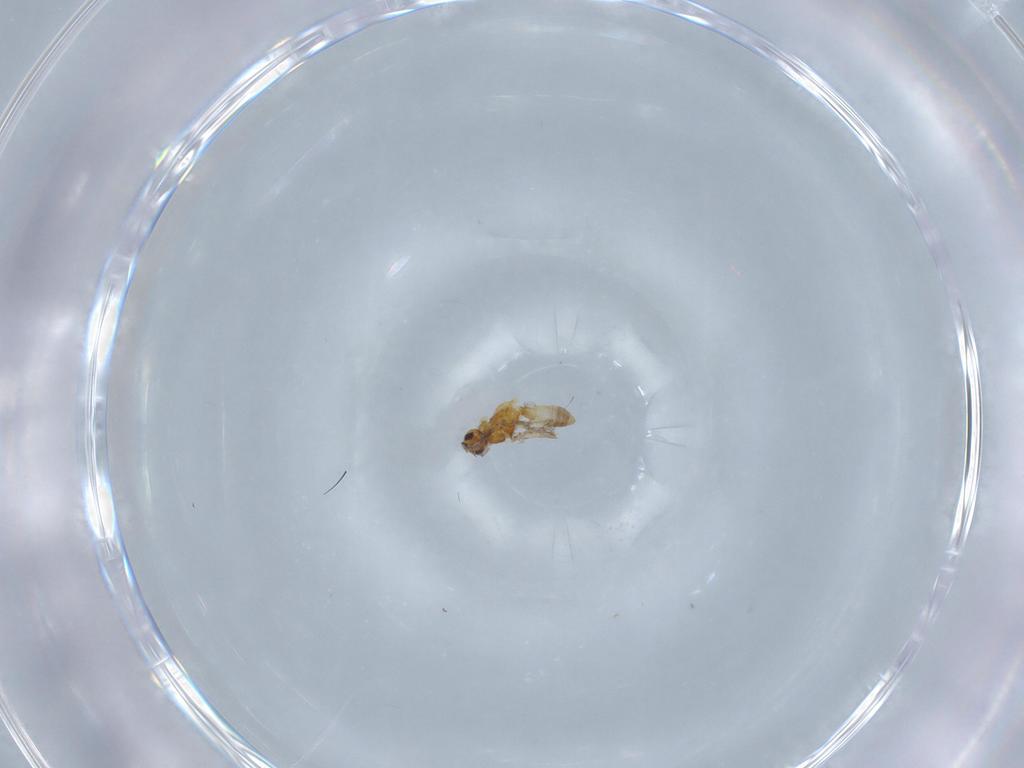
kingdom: Animalia
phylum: Arthropoda
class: Insecta
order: Diptera
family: Chironomidae
